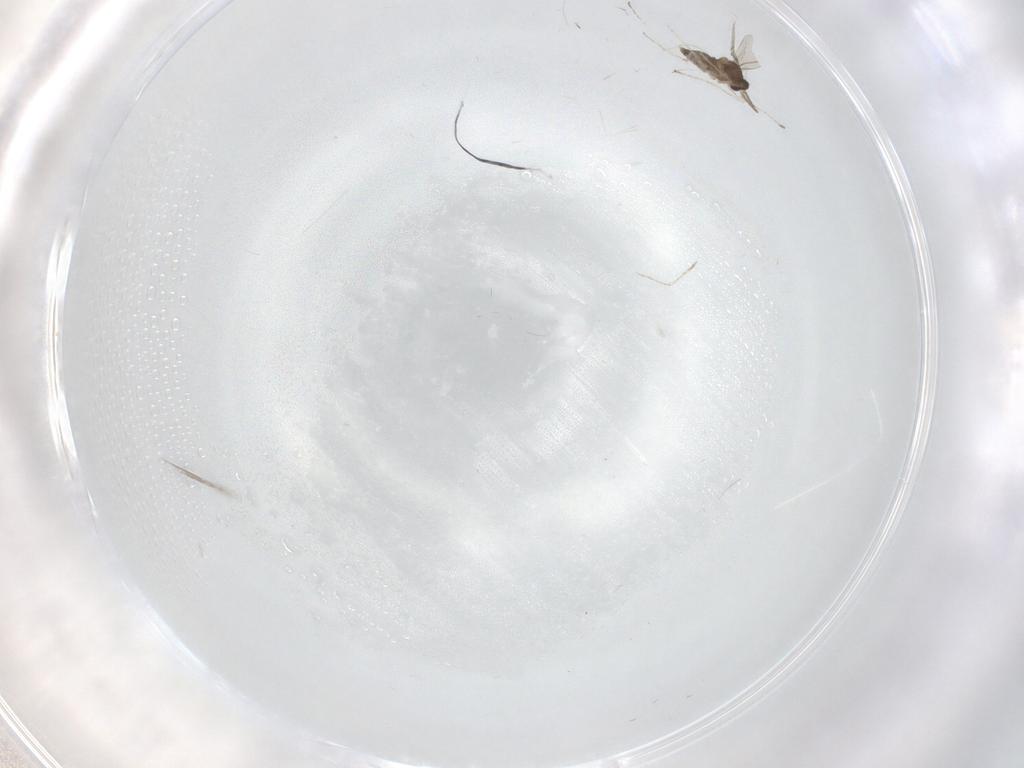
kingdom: Animalia
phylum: Arthropoda
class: Insecta
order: Diptera
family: Cecidomyiidae
